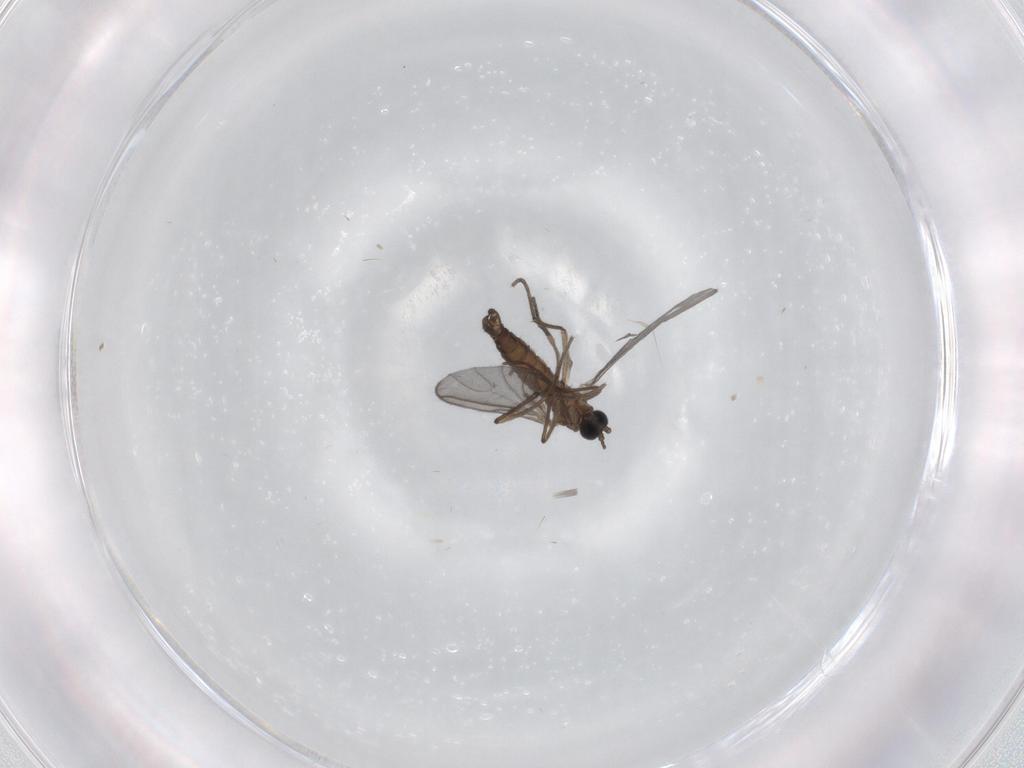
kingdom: Animalia
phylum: Arthropoda
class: Insecta
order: Diptera
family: Sciaridae
